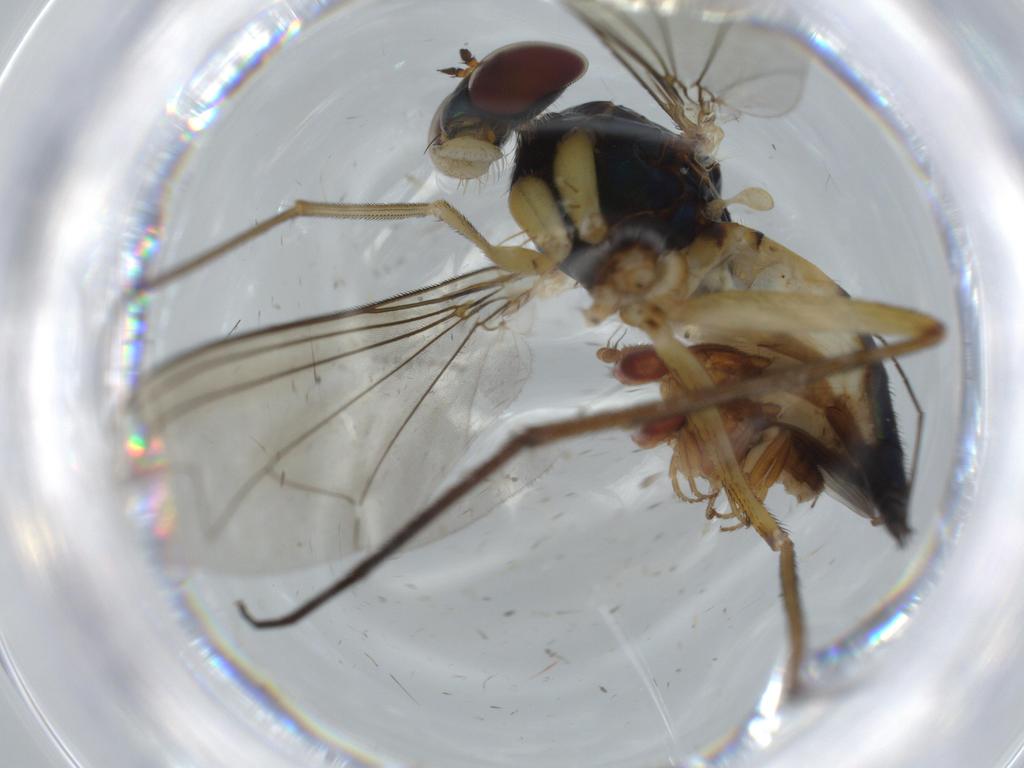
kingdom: Animalia
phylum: Arthropoda
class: Insecta
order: Diptera
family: Dolichopodidae
